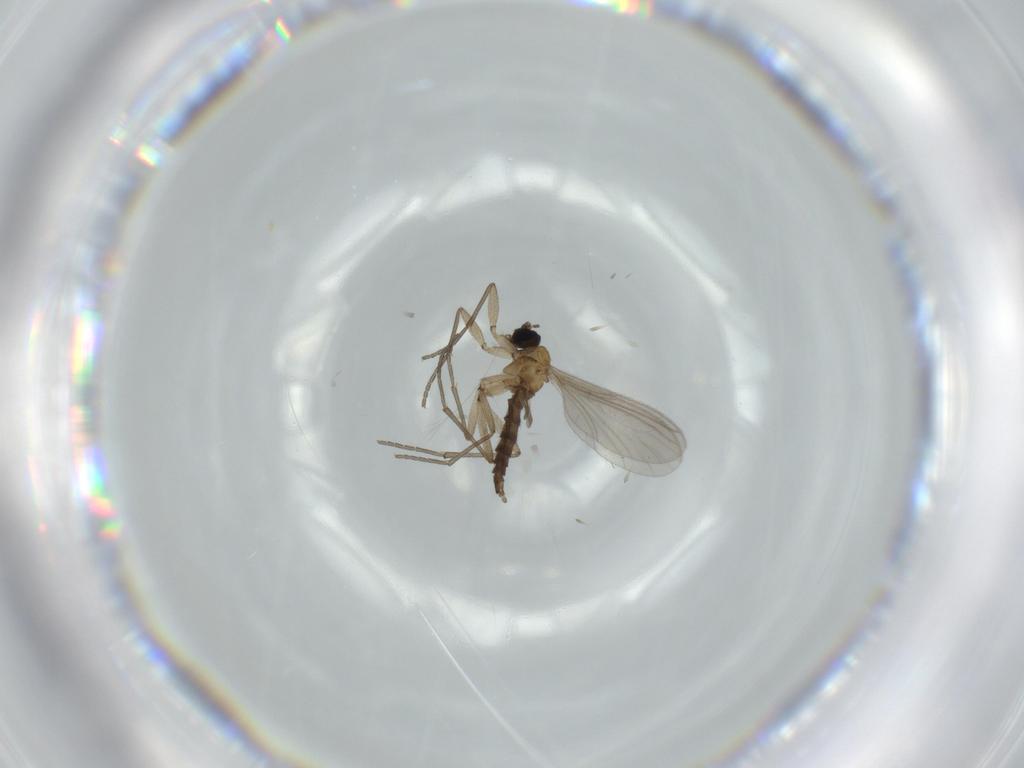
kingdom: Animalia
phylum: Arthropoda
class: Insecta
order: Diptera
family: Sciaridae
